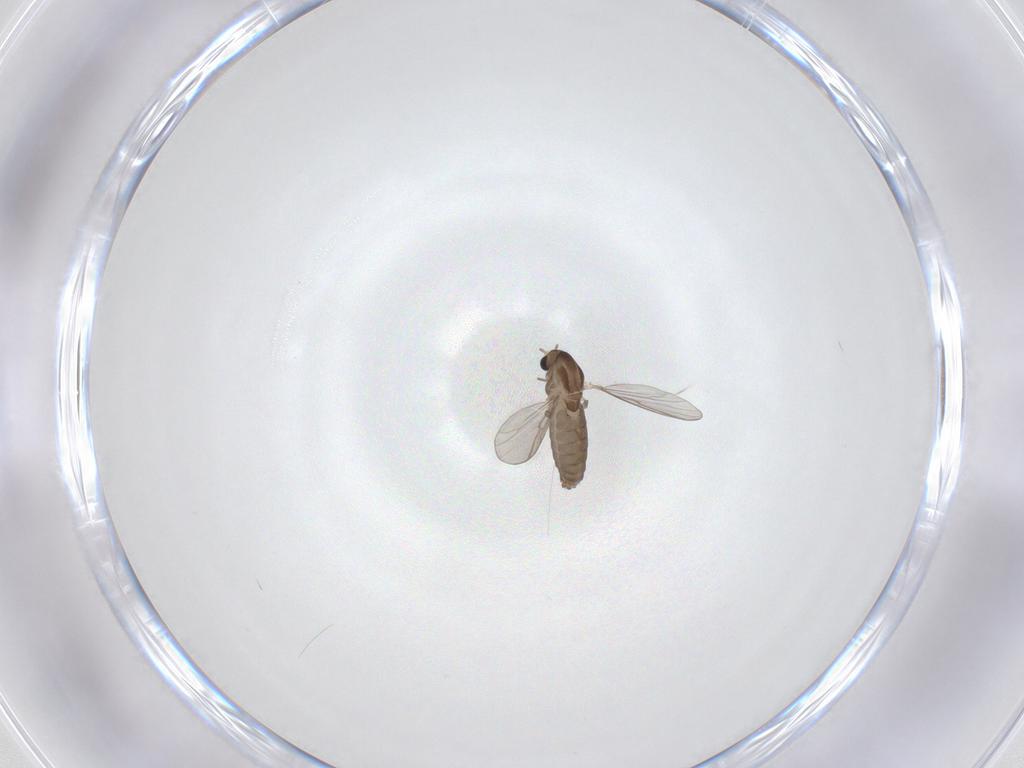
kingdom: Animalia
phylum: Arthropoda
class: Insecta
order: Diptera
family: Chironomidae
